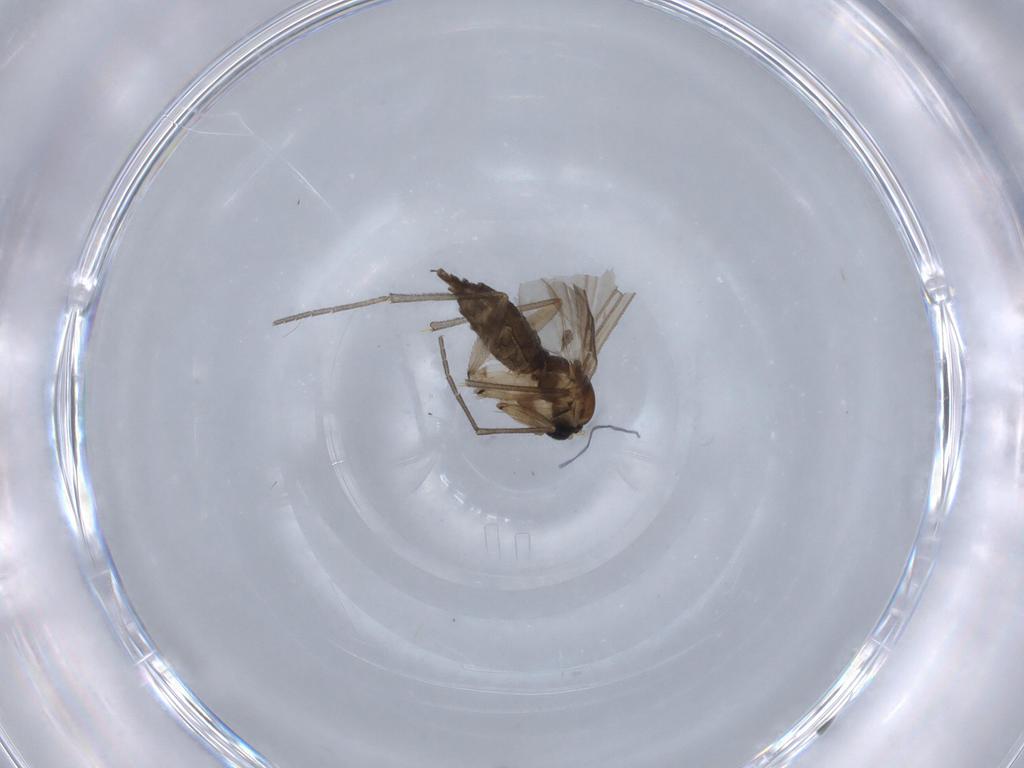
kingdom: Animalia
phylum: Arthropoda
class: Insecta
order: Diptera
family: Sciaridae
